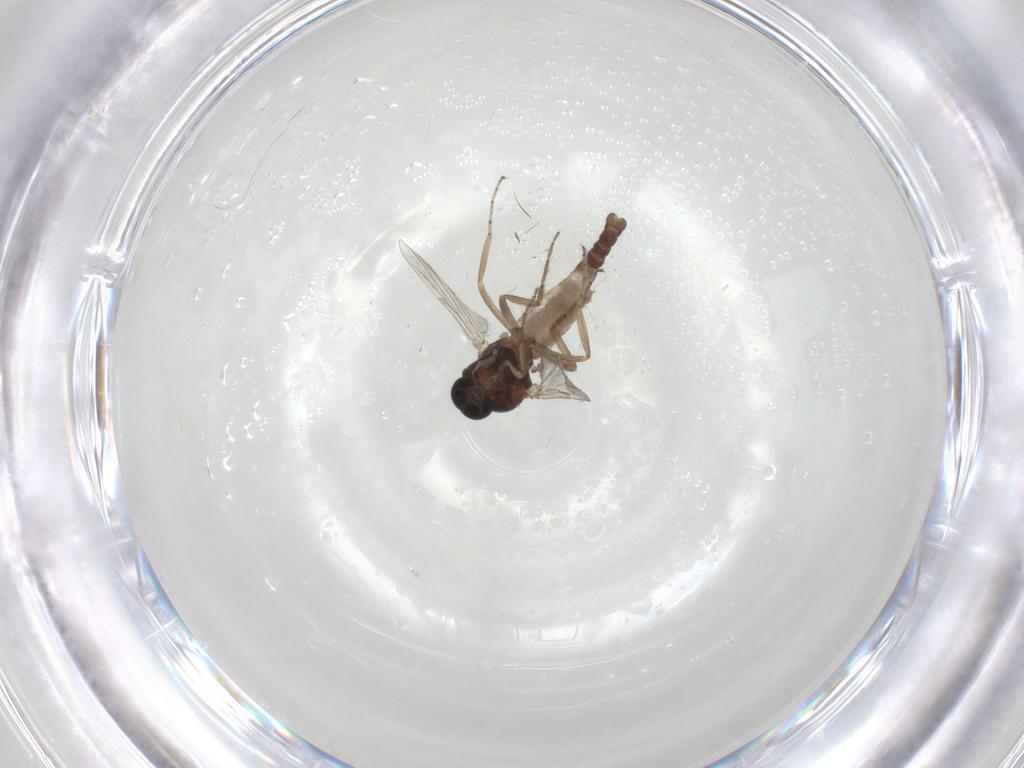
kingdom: Animalia
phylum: Arthropoda
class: Insecta
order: Diptera
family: Ceratopogonidae
